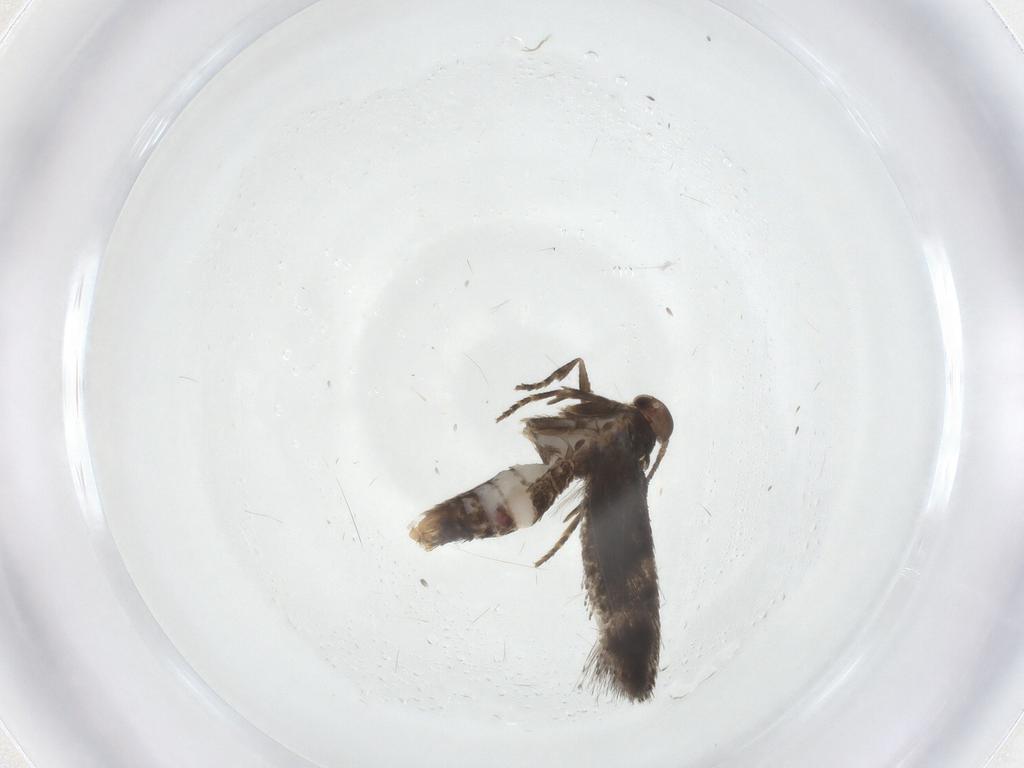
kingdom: Animalia
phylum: Arthropoda
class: Insecta
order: Lepidoptera
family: Elachistidae
